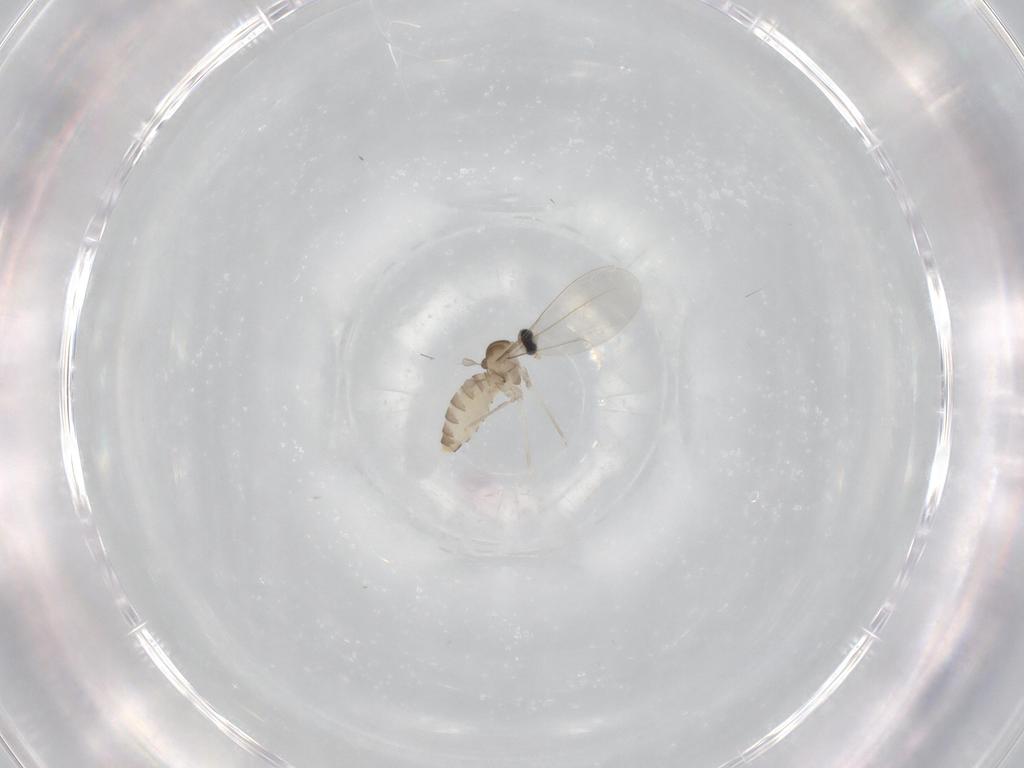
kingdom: Animalia
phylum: Arthropoda
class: Insecta
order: Diptera
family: Cecidomyiidae
